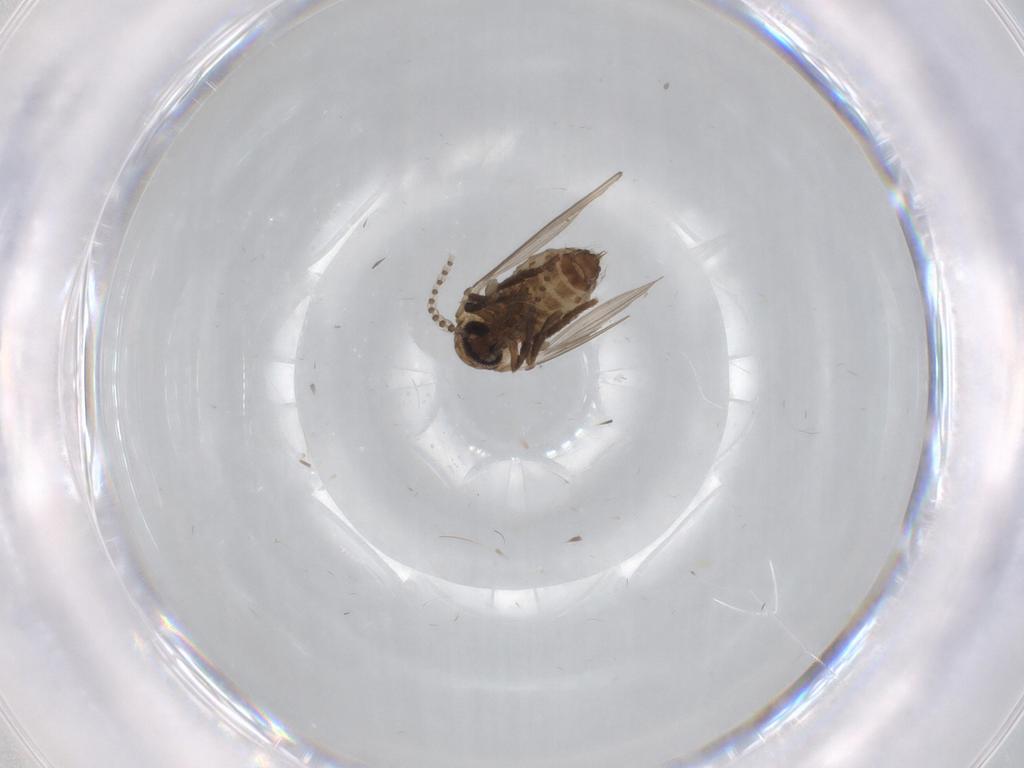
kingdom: Animalia
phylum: Arthropoda
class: Insecta
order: Diptera
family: Psychodidae
